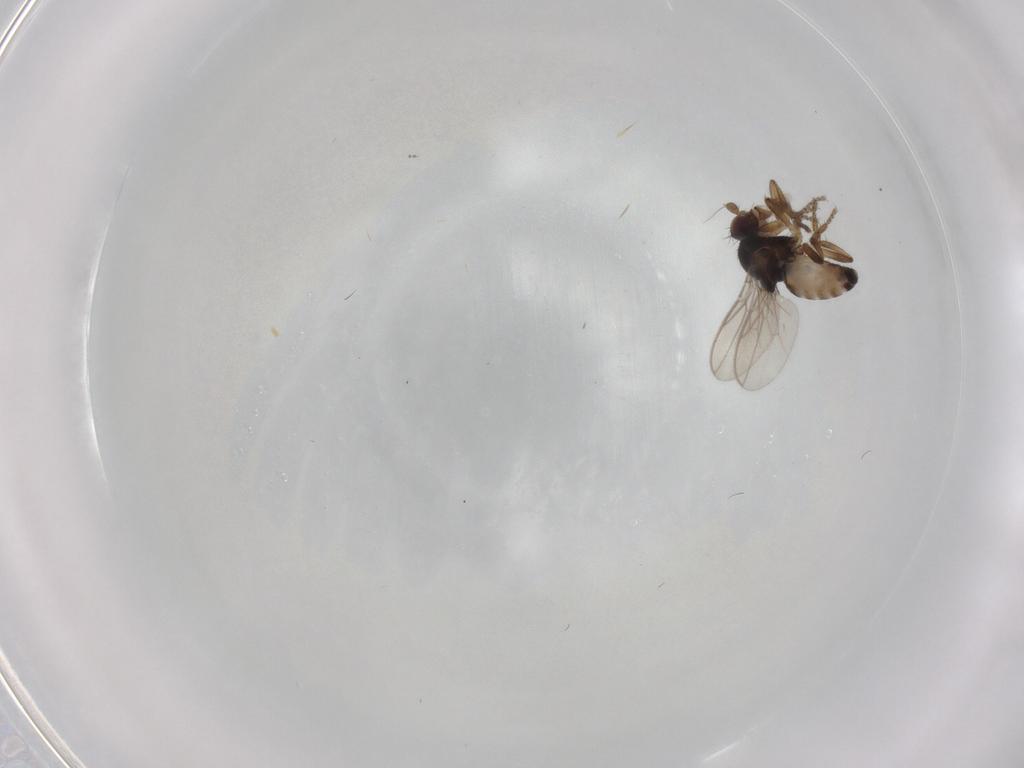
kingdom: Animalia
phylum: Arthropoda
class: Insecta
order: Diptera
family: Sphaeroceridae
